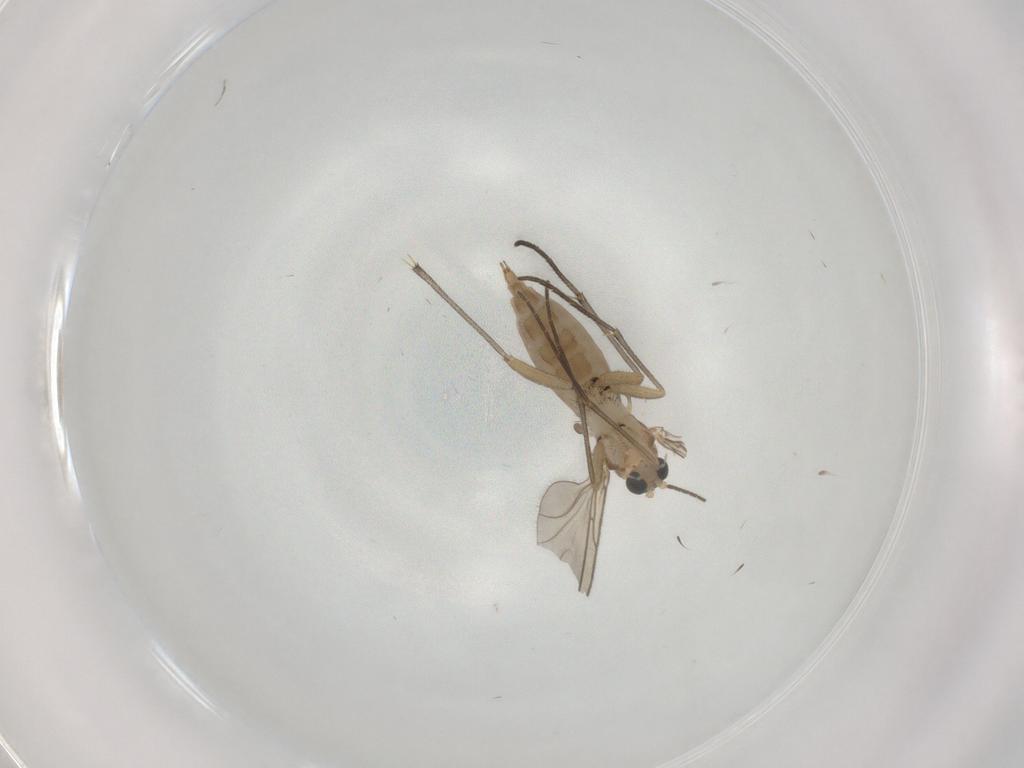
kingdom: Animalia
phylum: Arthropoda
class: Insecta
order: Diptera
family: Sciaridae
